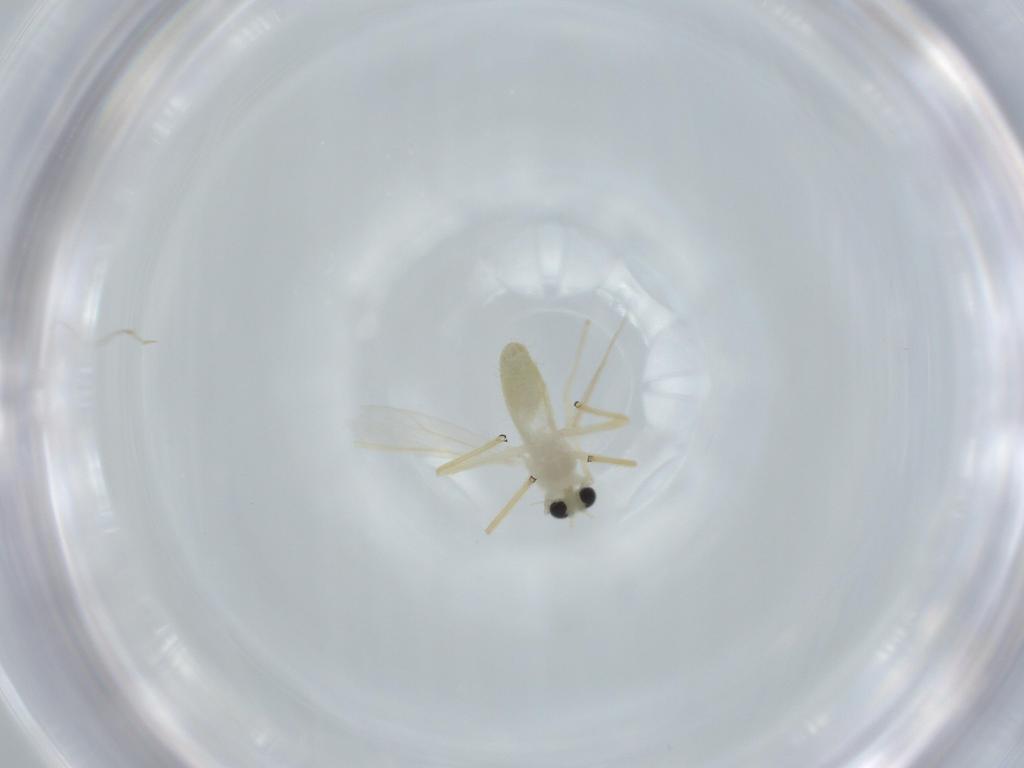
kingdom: Animalia
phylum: Arthropoda
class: Insecta
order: Diptera
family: Chironomidae
